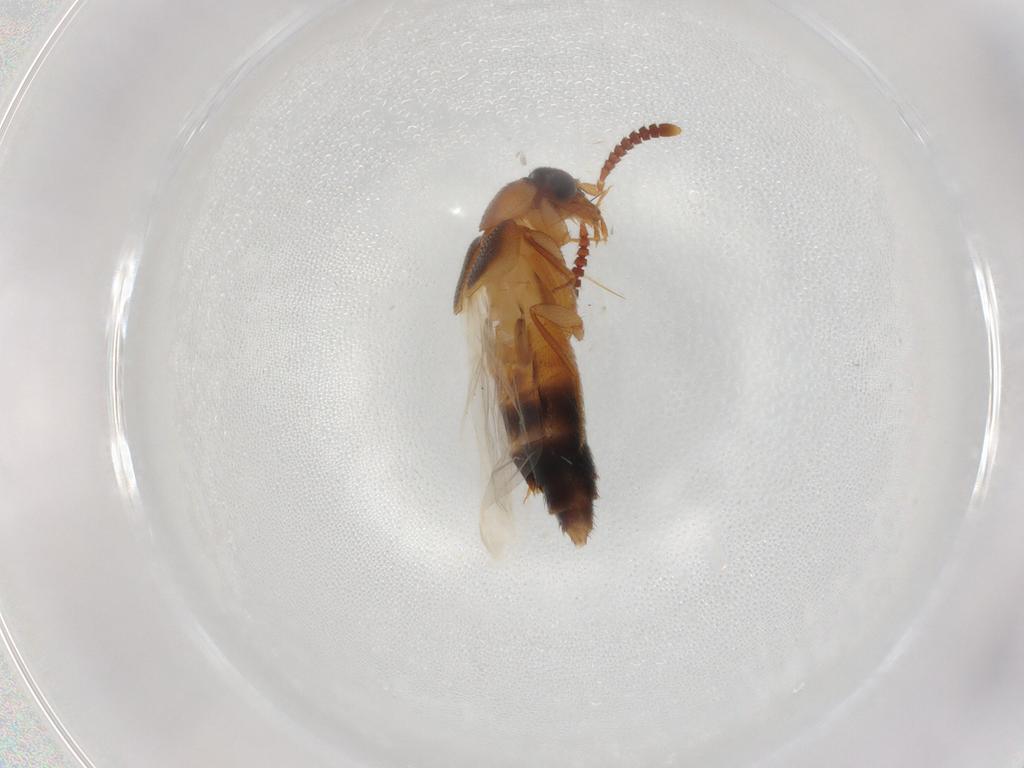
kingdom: Animalia
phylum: Arthropoda
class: Insecta
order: Coleoptera
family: Staphylinidae
